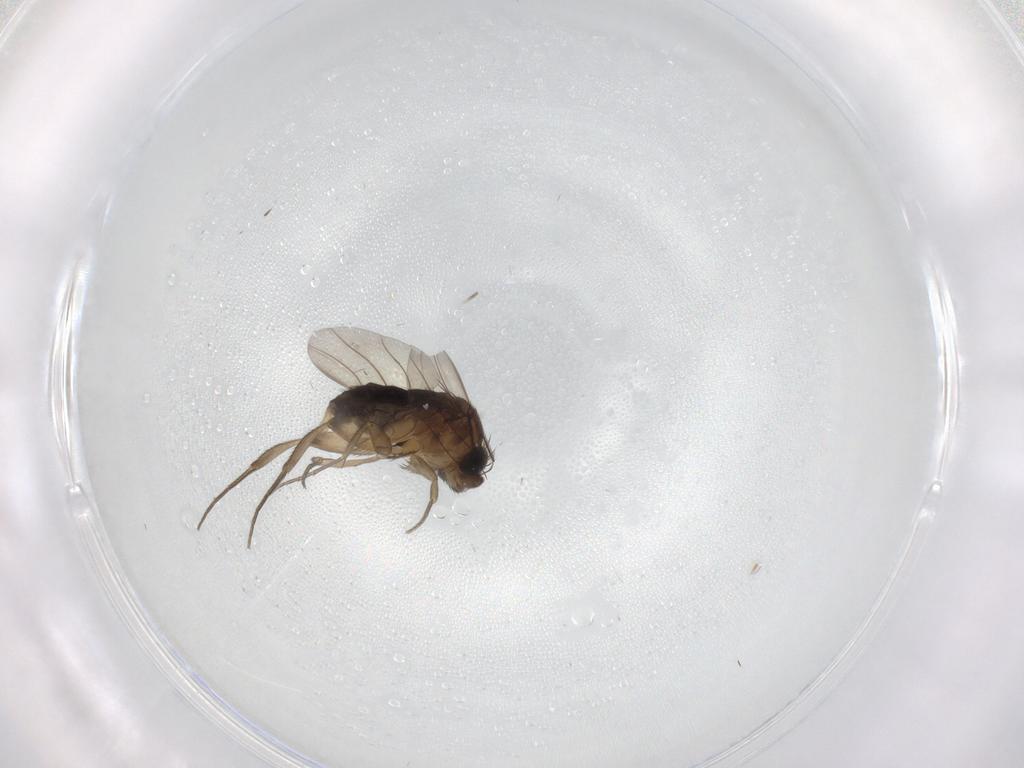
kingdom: Animalia
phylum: Arthropoda
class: Insecta
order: Diptera
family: Phoridae
